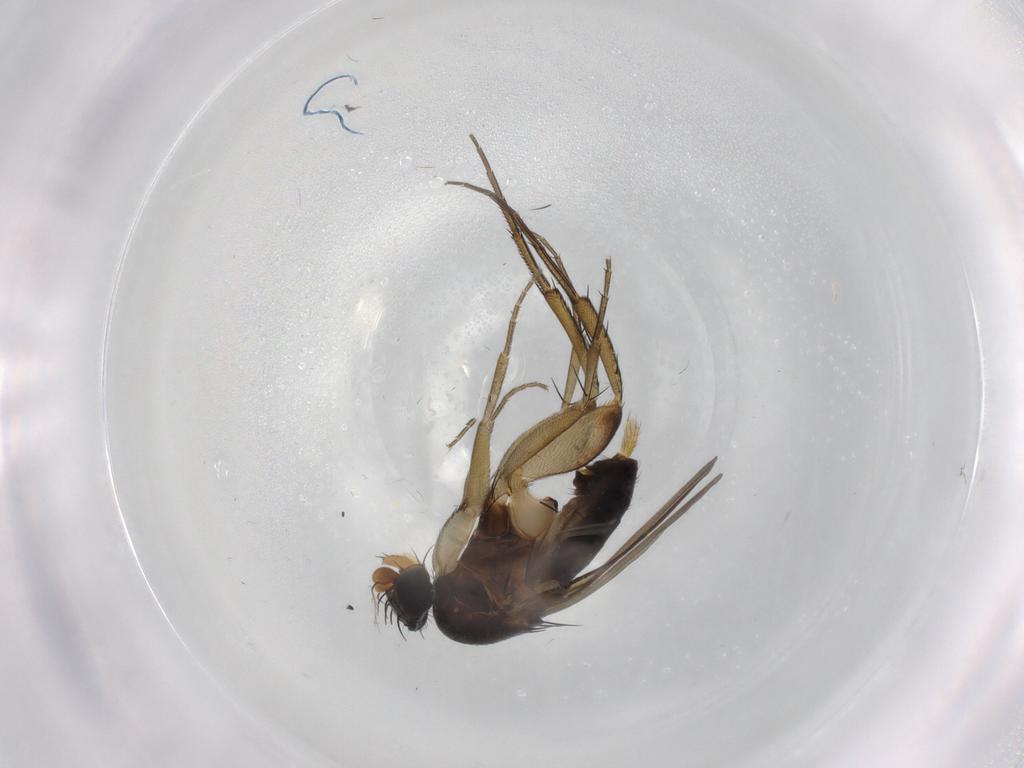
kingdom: Animalia
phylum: Arthropoda
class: Insecta
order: Diptera
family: Phoridae
